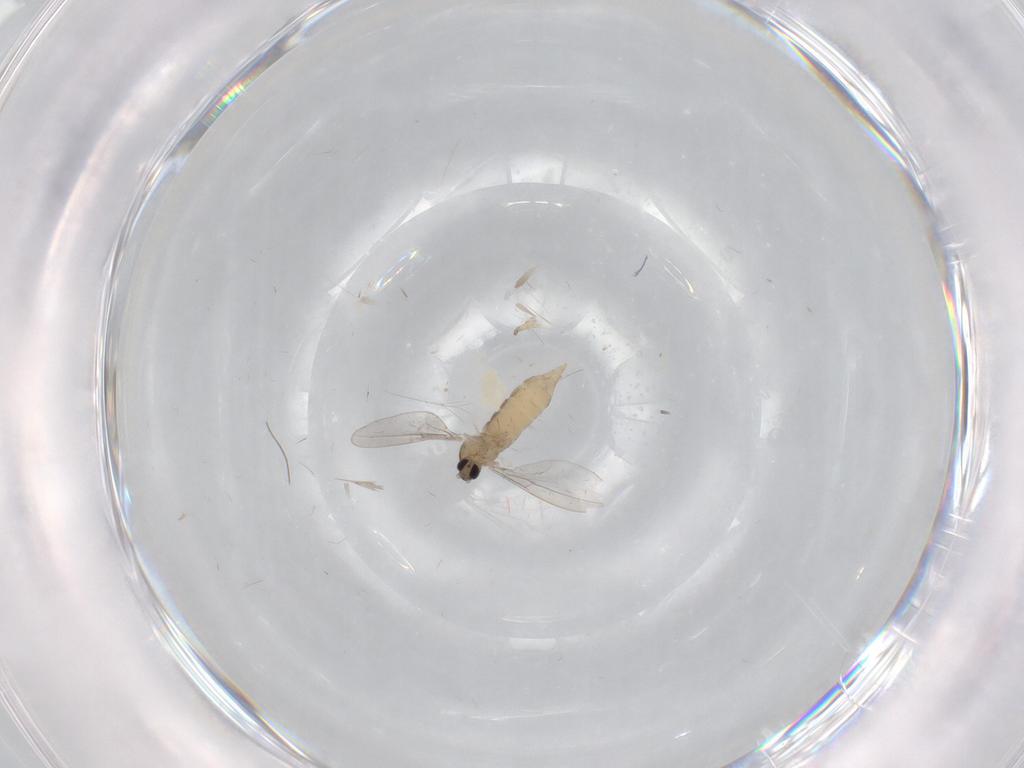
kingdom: Animalia
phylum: Arthropoda
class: Insecta
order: Diptera
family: Cecidomyiidae
